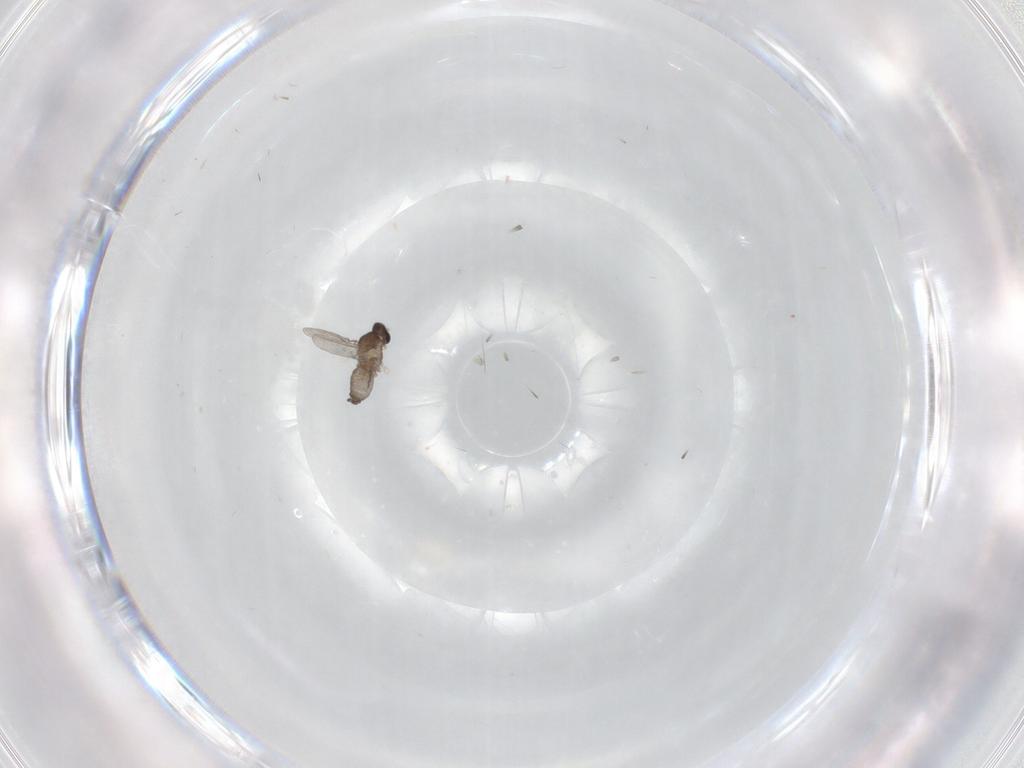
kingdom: Animalia
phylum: Arthropoda
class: Insecta
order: Diptera
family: Cecidomyiidae
